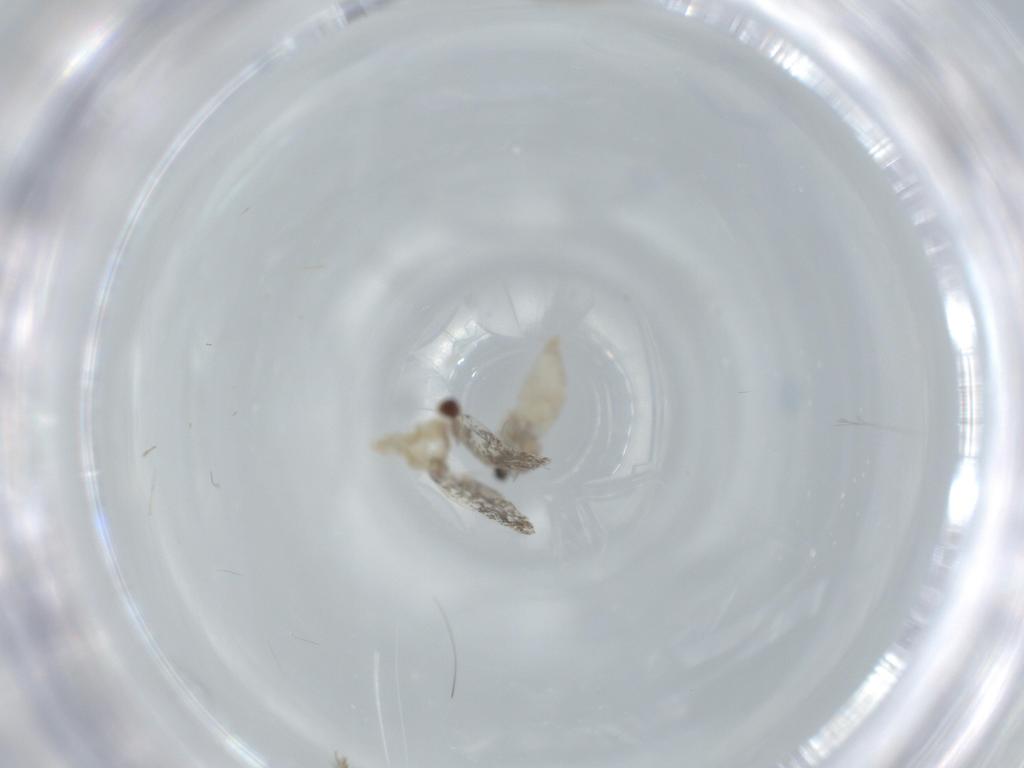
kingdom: Animalia
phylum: Arthropoda
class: Insecta
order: Diptera
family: Cecidomyiidae
